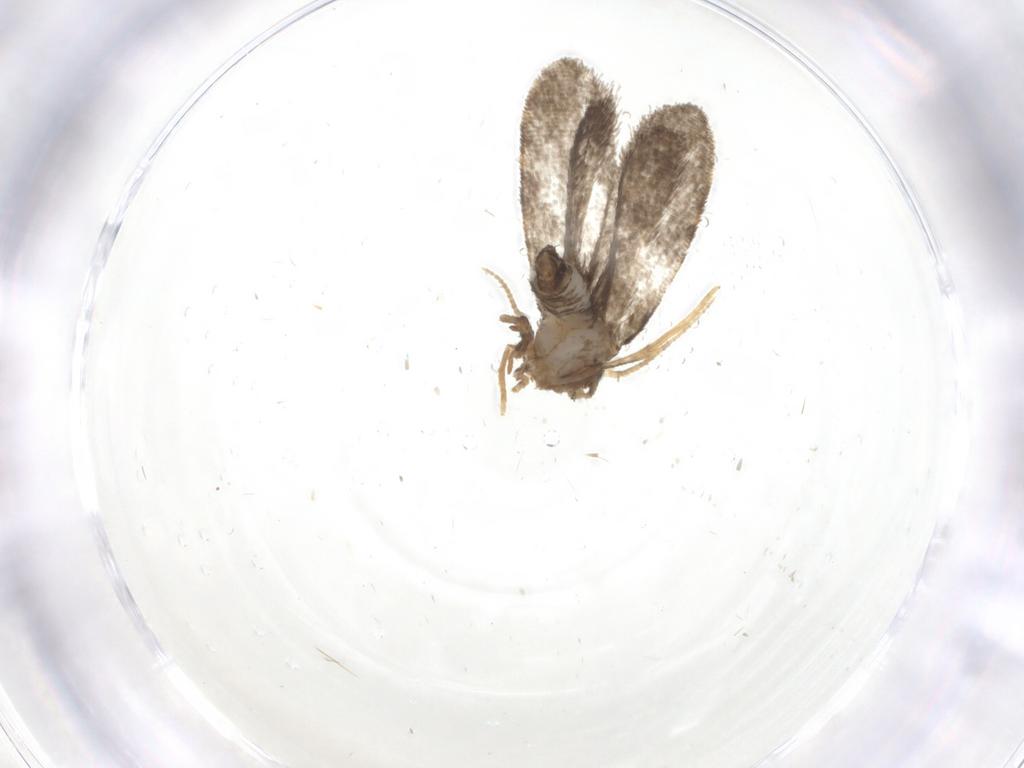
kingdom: Animalia
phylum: Arthropoda
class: Insecta
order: Lepidoptera
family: Psychidae
